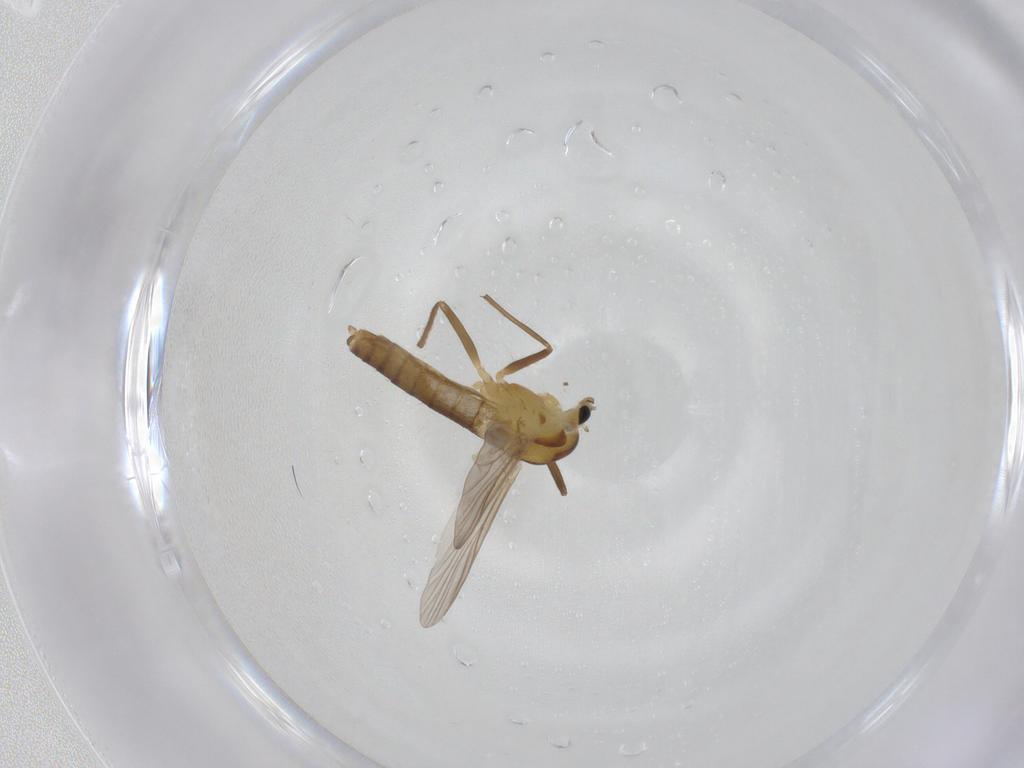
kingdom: Animalia
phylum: Arthropoda
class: Insecta
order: Diptera
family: Chironomidae
